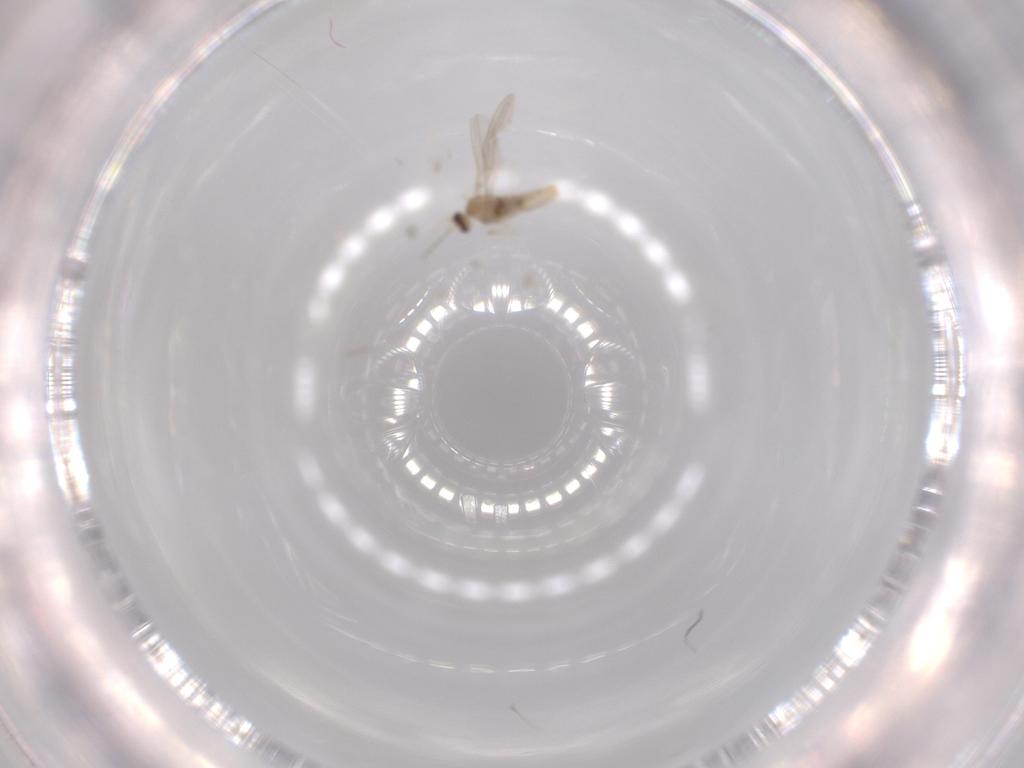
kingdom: Animalia
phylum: Arthropoda
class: Insecta
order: Diptera
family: Cecidomyiidae
